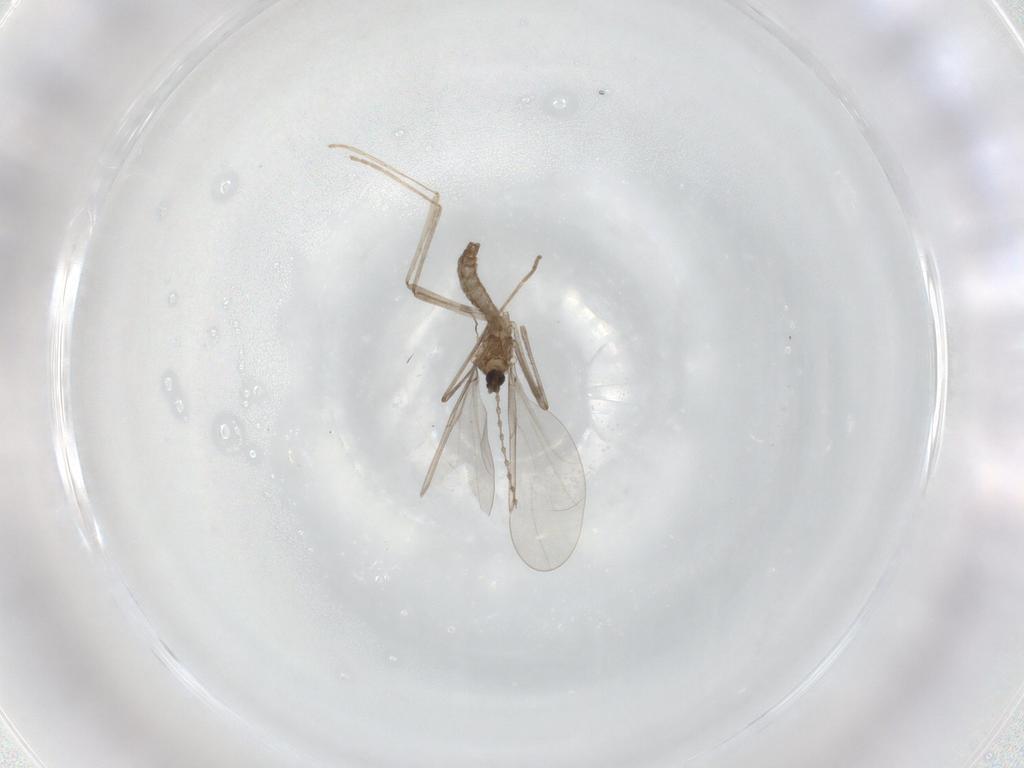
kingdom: Animalia
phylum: Arthropoda
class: Insecta
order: Diptera
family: Cecidomyiidae
